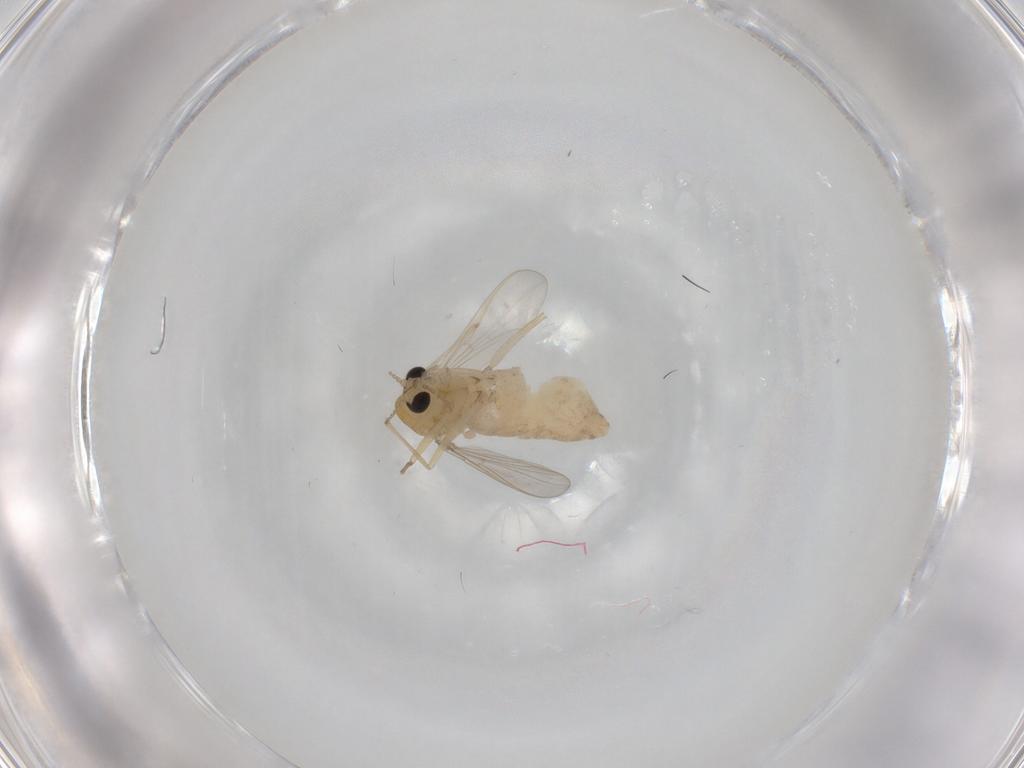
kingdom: Animalia
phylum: Arthropoda
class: Insecta
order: Diptera
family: Chironomidae
